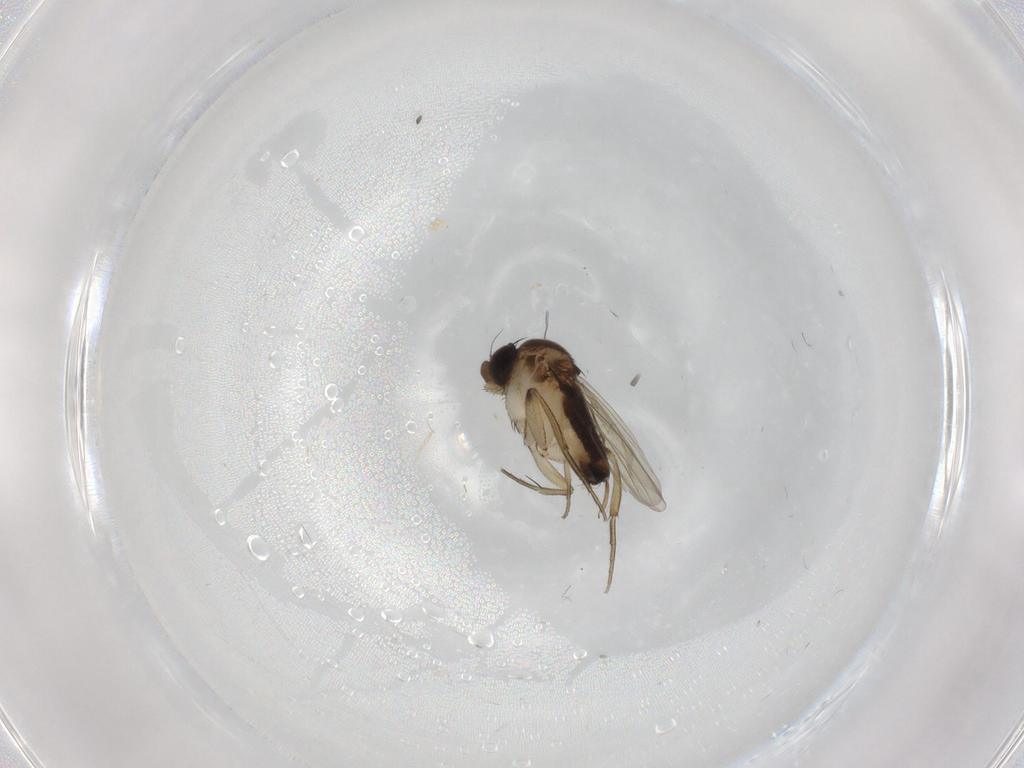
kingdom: Animalia
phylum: Arthropoda
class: Insecta
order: Diptera
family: Phoridae
